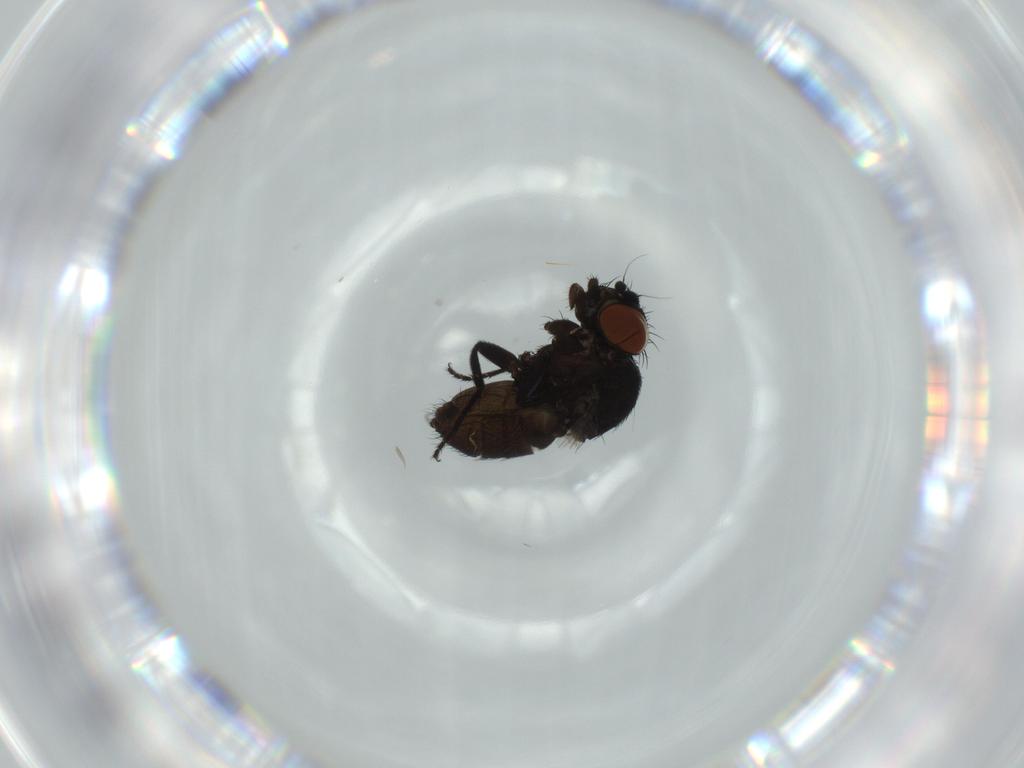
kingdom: Animalia
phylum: Arthropoda
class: Insecta
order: Diptera
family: Milichiidae
